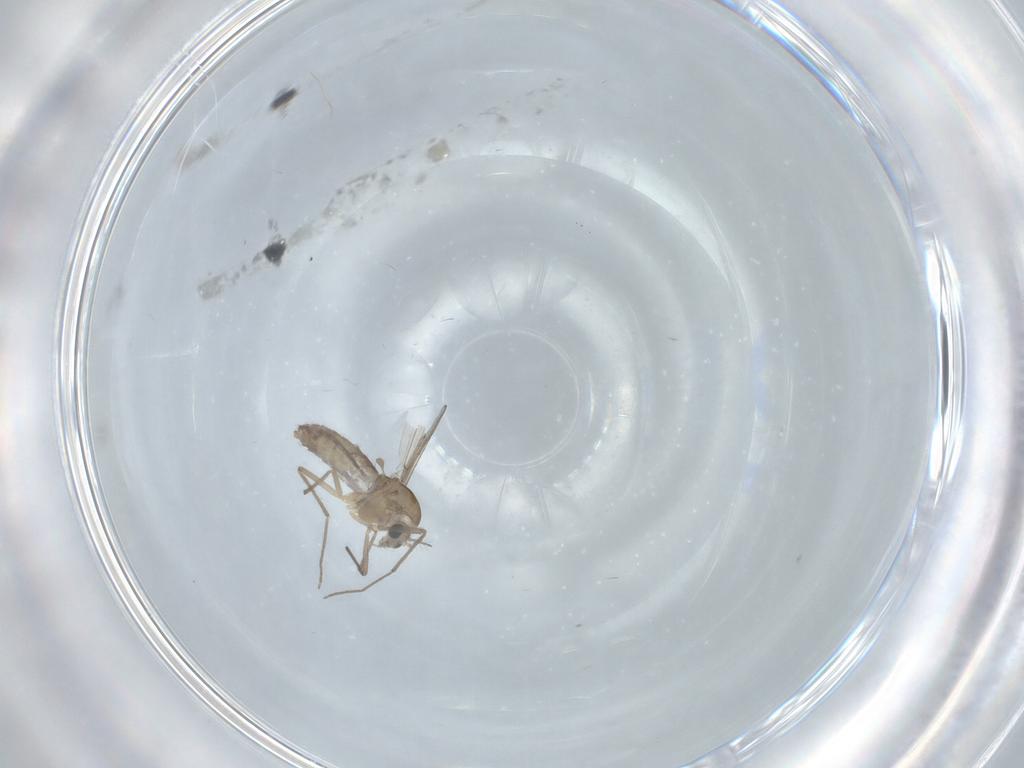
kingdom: Animalia
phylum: Arthropoda
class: Insecta
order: Diptera
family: Chironomidae
